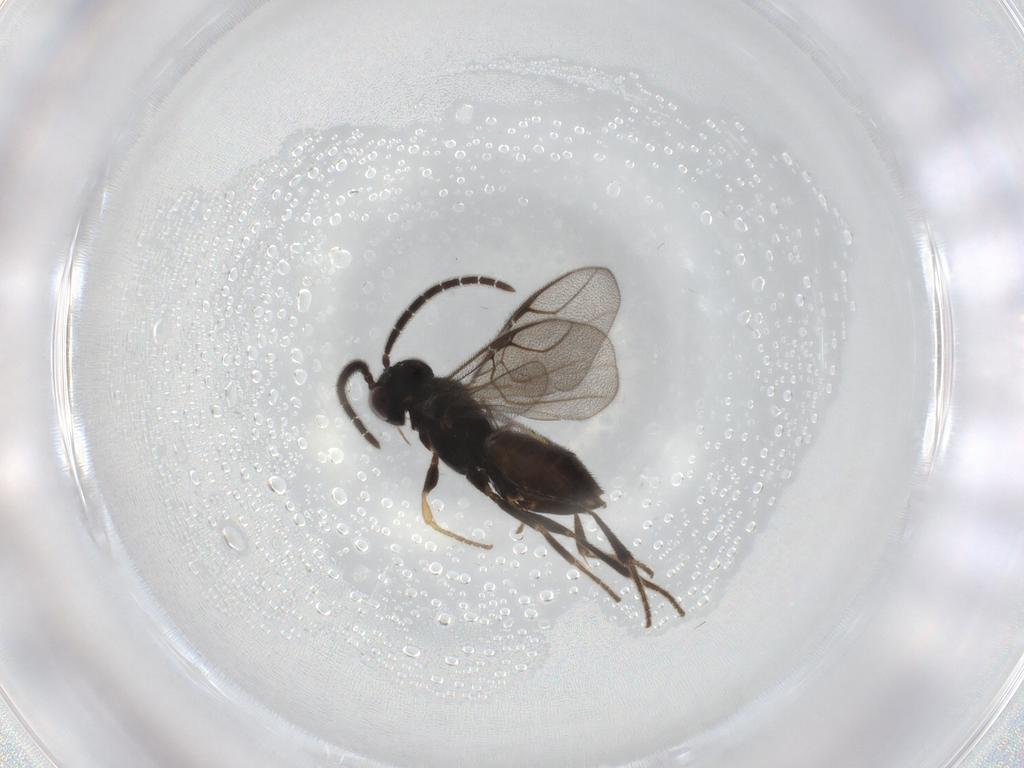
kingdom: Animalia
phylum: Arthropoda
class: Insecta
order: Hymenoptera
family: Dryinidae
